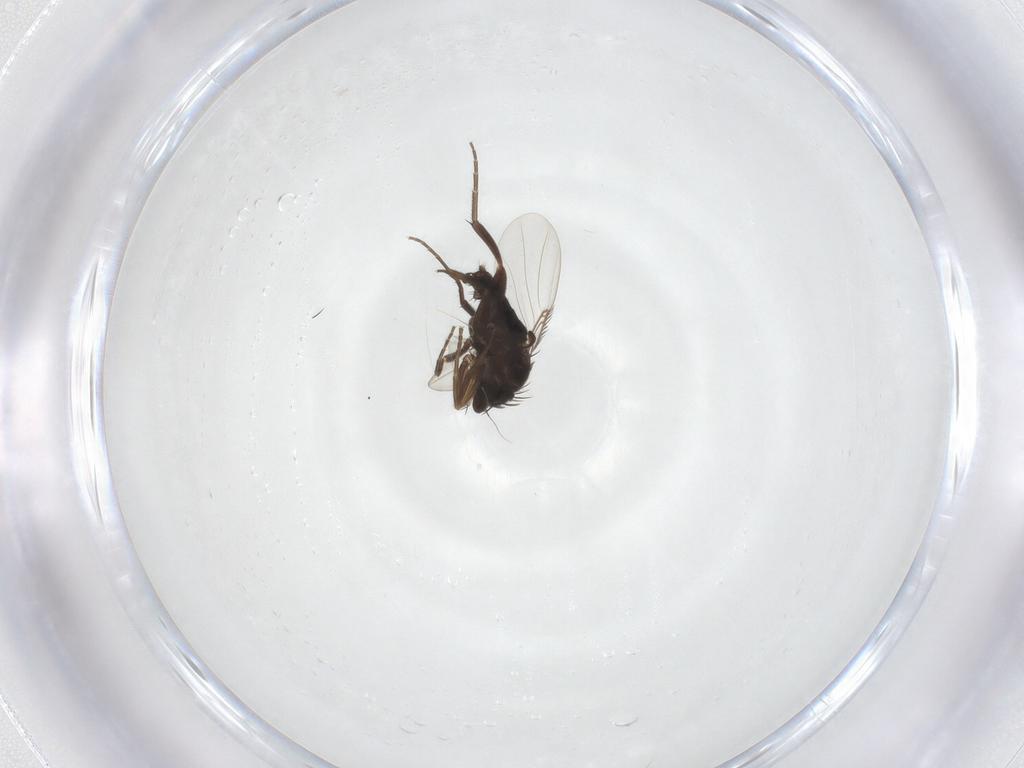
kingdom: Animalia
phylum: Arthropoda
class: Insecta
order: Diptera
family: Phoridae
